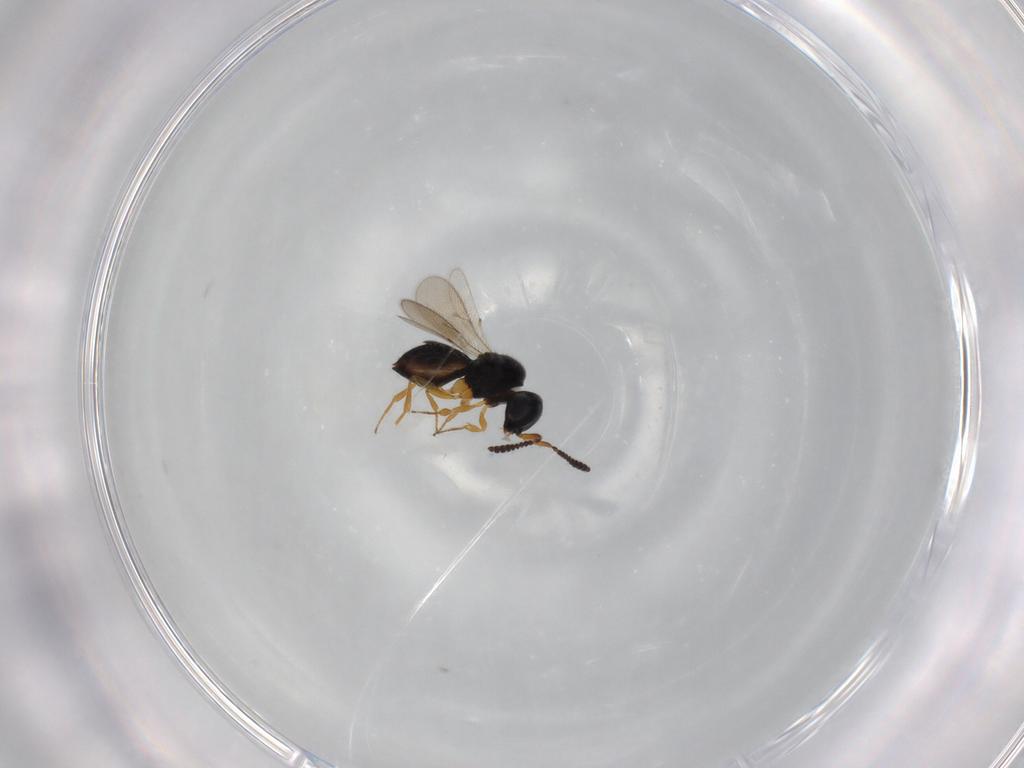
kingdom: Animalia
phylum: Arthropoda
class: Insecta
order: Hymenoptera
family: Scelionidae
